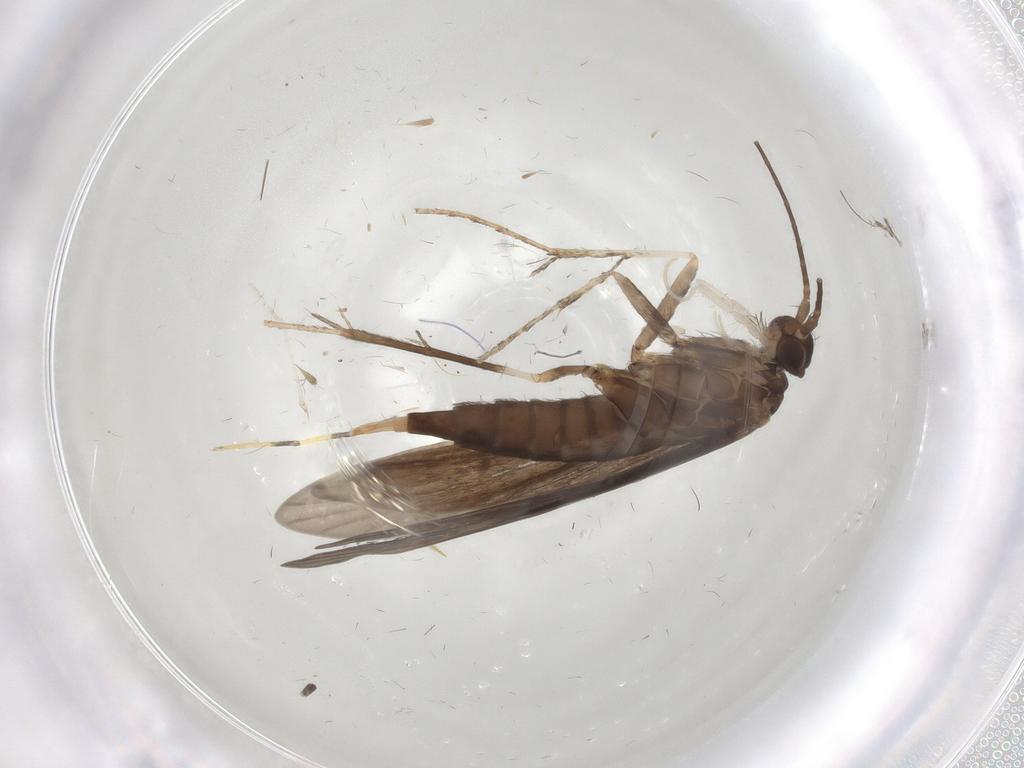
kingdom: Animalia
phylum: Arthropoda
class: Insecta
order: Trichoptera
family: Xiphocentronidae
